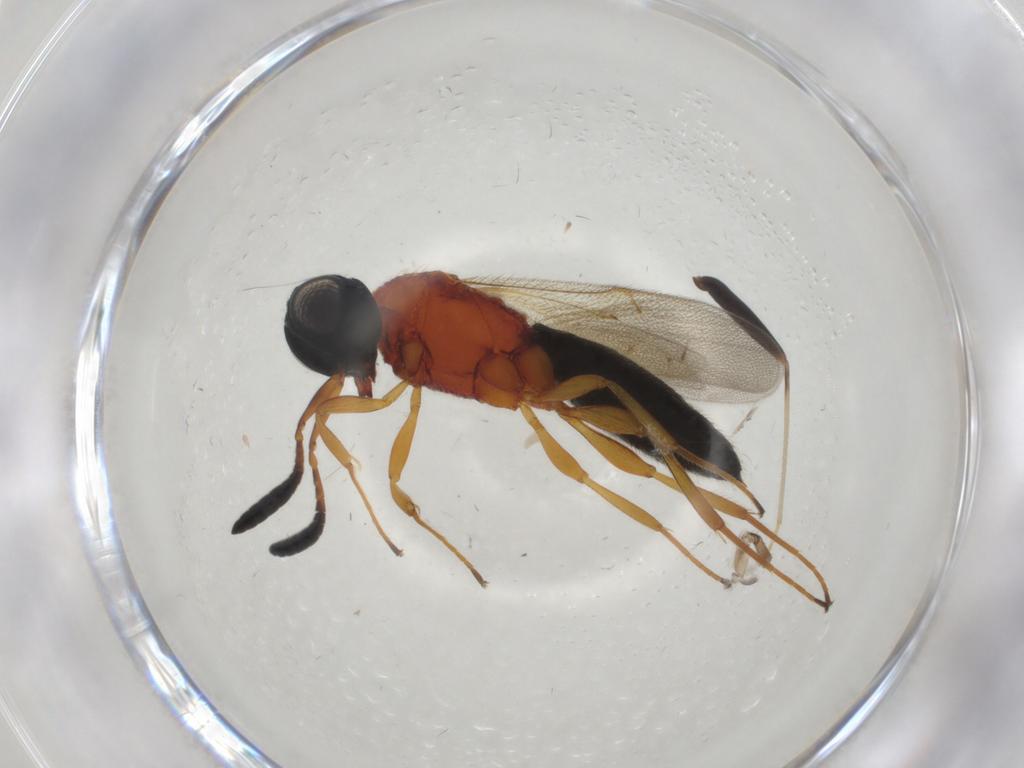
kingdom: Animalia
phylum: Arthropoda
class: Insecta
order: Hymenoptera
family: Scelionidae
